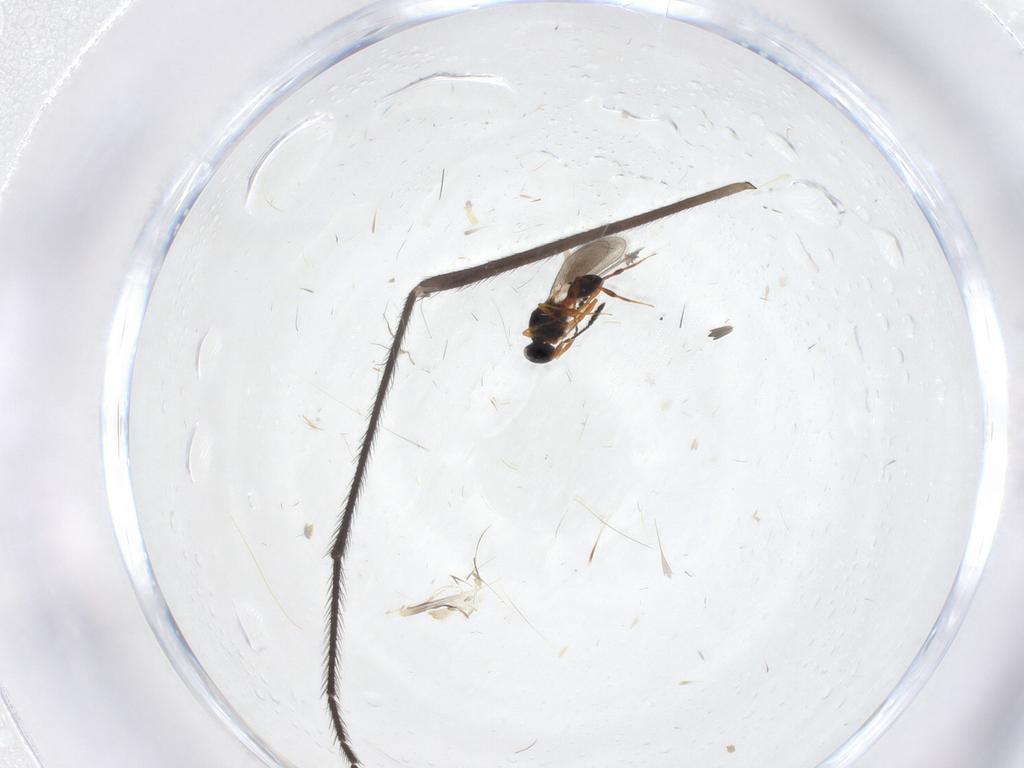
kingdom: Animalia
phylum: Arthropoda
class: Insecta
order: Diptera
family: Limoniidae
